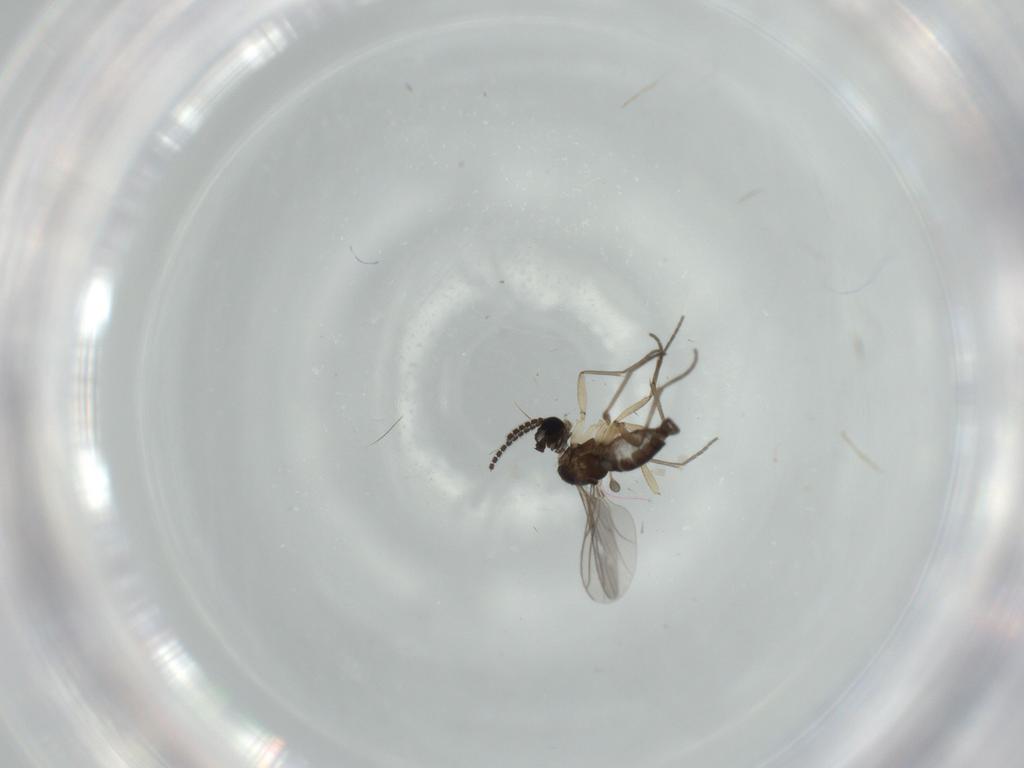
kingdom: Animalia
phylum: Arthropoda
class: Insecta
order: Diptera
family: Sciaridae
